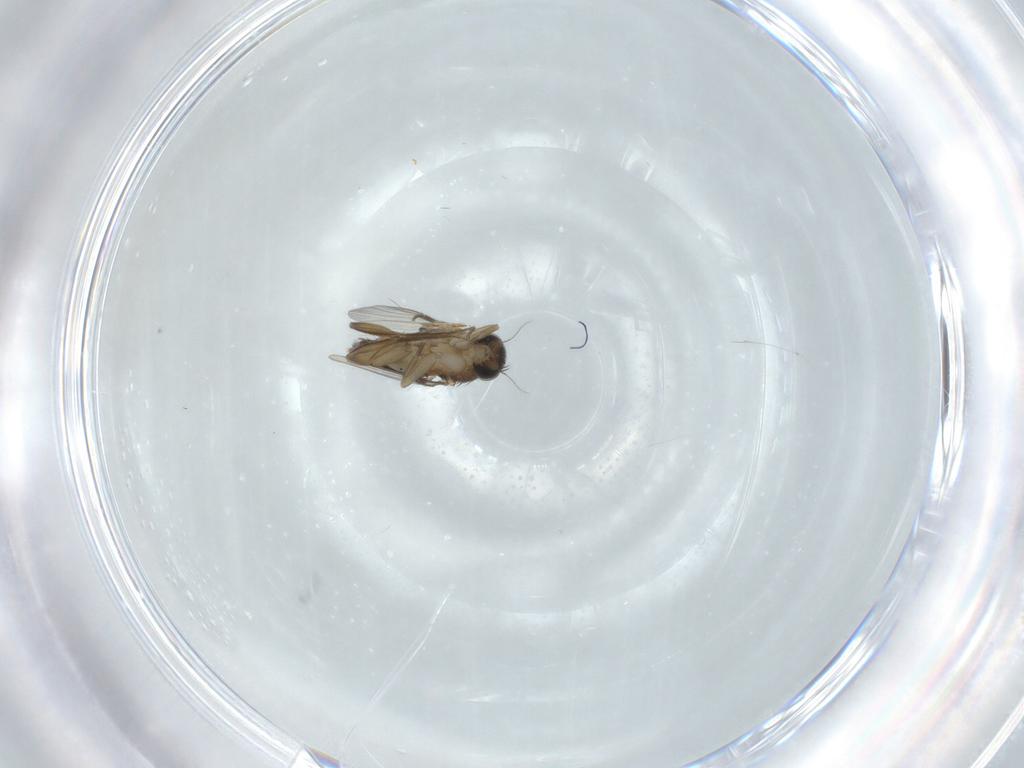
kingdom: Animalia
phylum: Arthropoda
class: Insecta
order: Diptera
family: Phoridae
